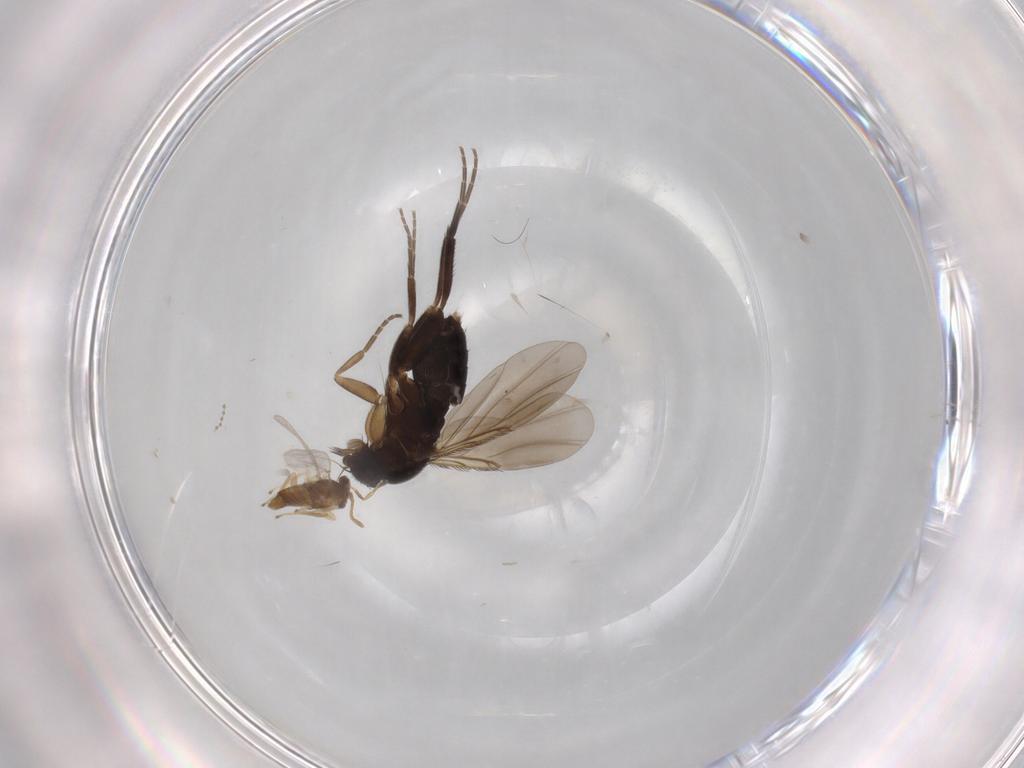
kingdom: Animalia
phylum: Arthropoda
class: Insecta
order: Diptera
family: Phoridae
